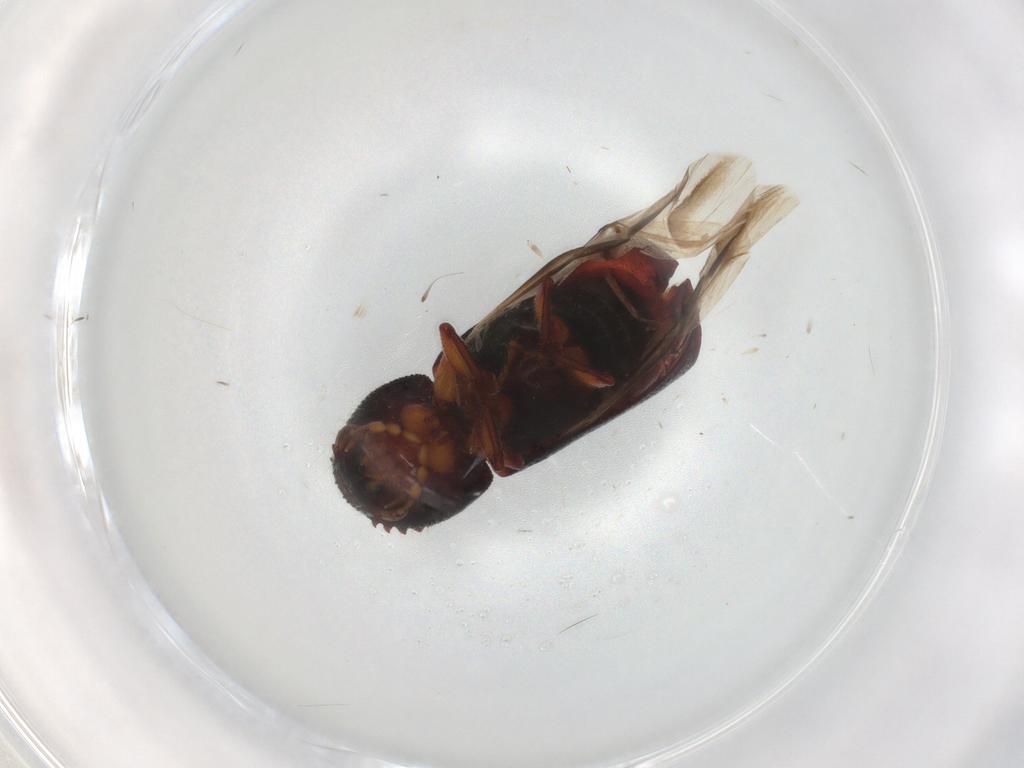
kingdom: Animalia
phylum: Arthropoda
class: Insecta
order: Coleoptera
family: Bostrichidae
